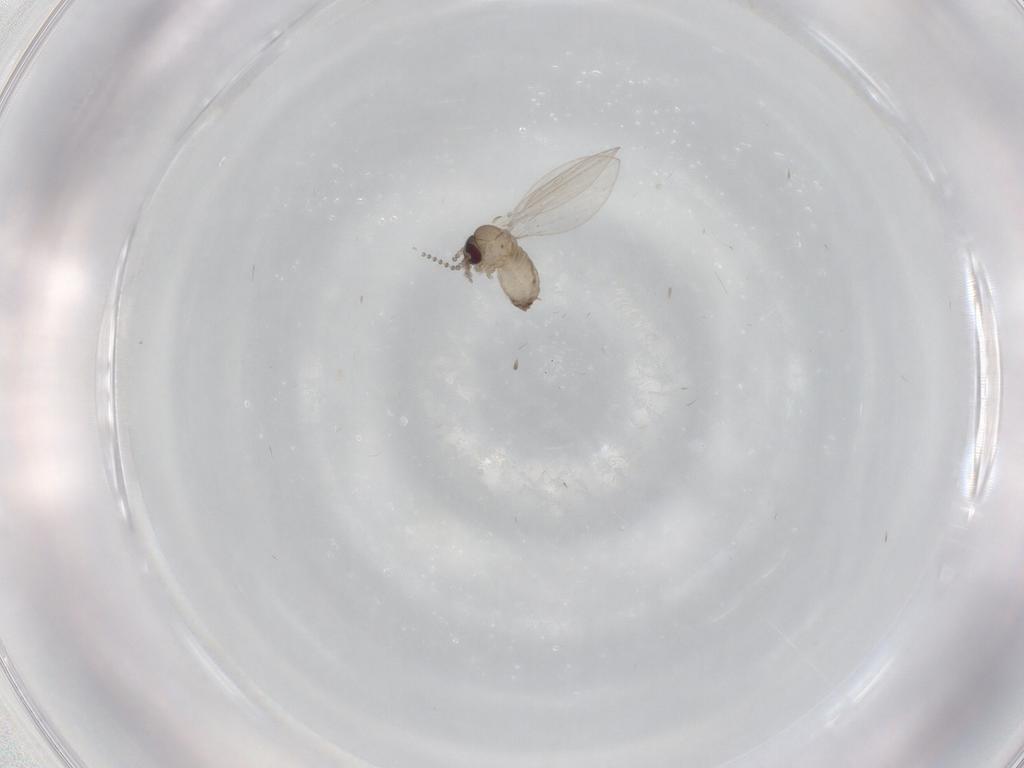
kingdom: Animalia
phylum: Arthropoda
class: Insecta
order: Diptera
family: Psychodidae
